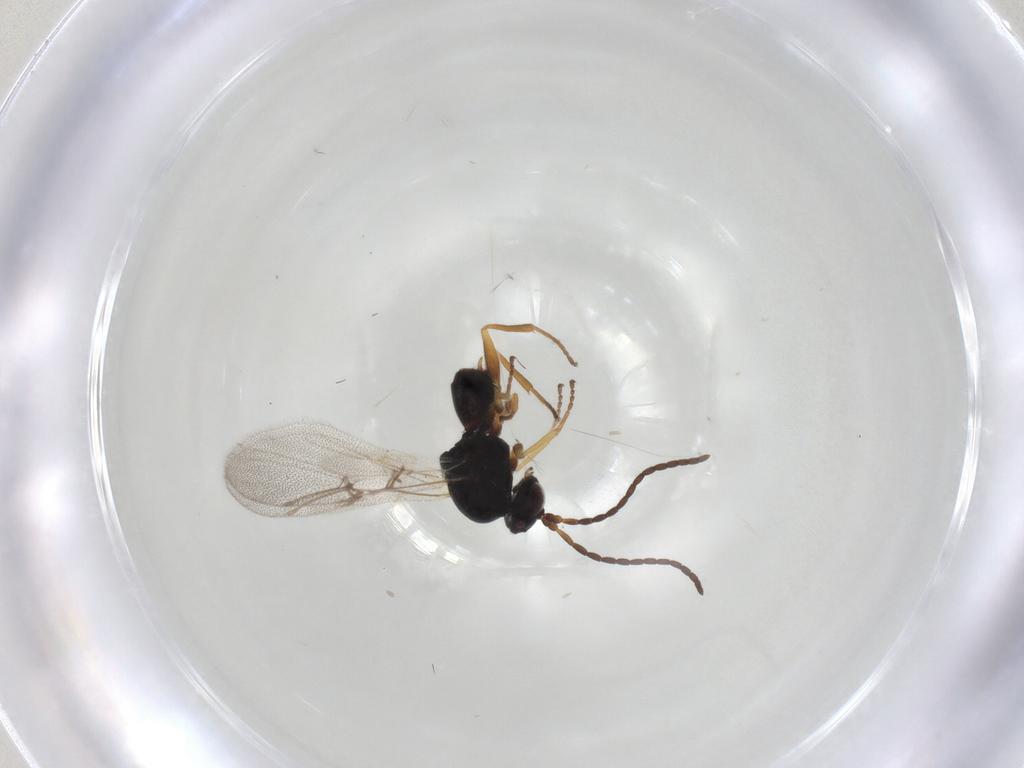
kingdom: Animalia
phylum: Arthropoda
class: Insecta
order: Hymenoptera
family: Cynipidae
